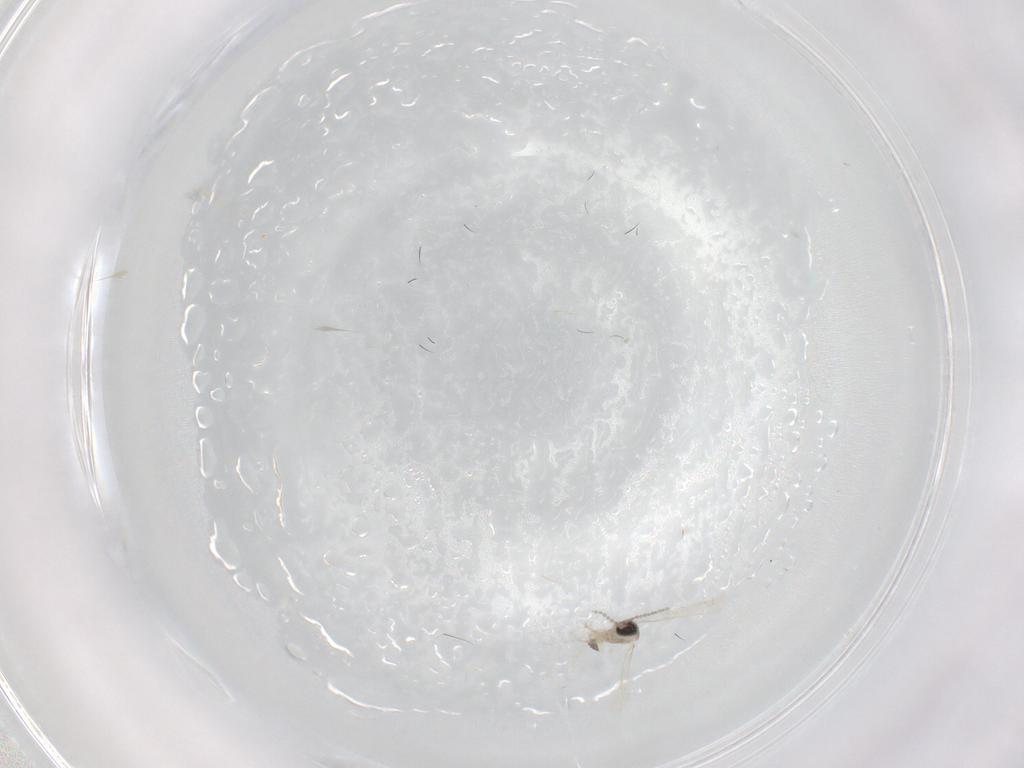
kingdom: Animalia
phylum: Arthropoda
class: Insecta
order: Diptera
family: Cecidomyiidae
